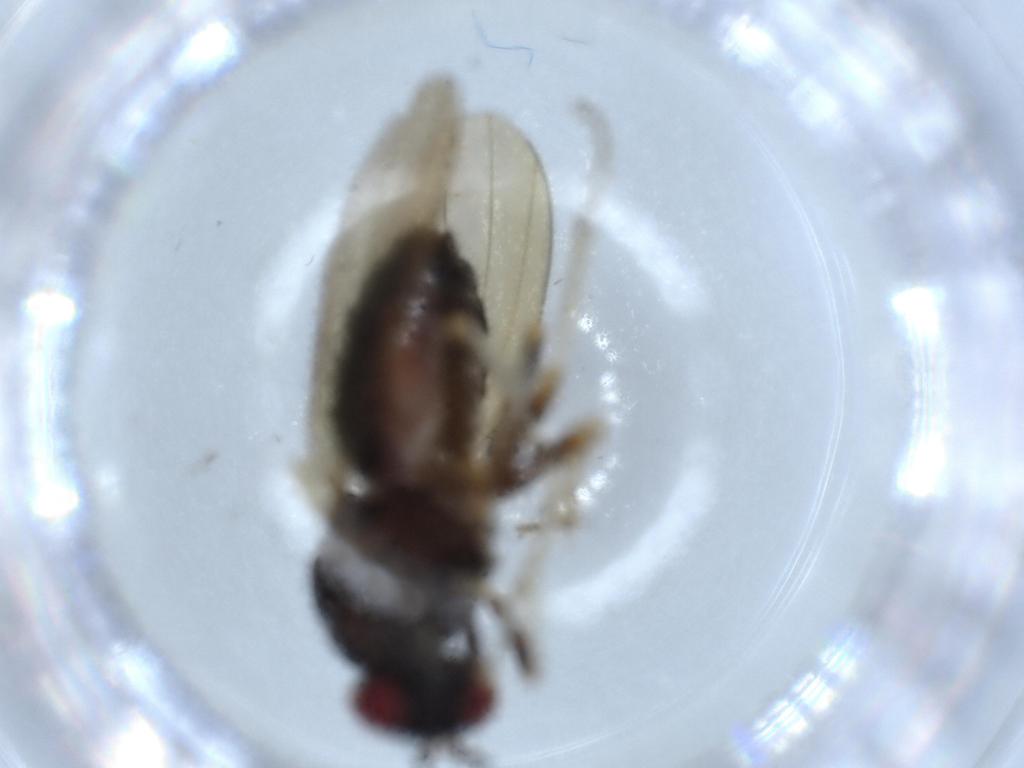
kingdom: Animalia
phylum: Arthropoda
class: Insecta
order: Diptera
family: Lauxaniidae
